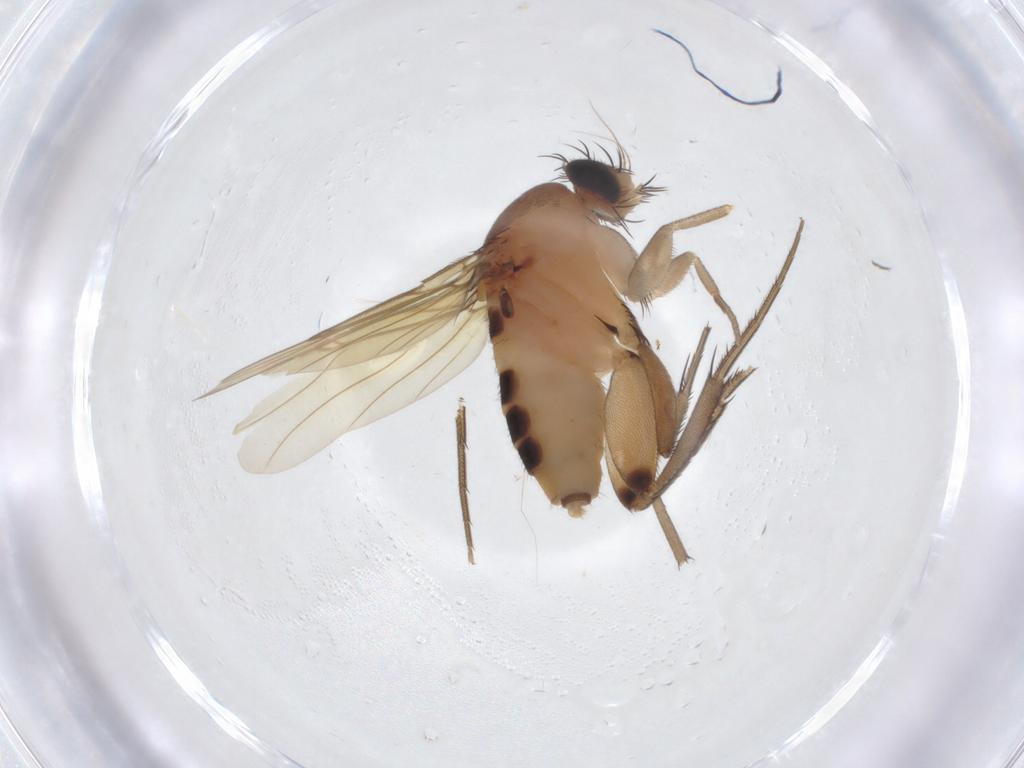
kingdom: Animalia
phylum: Arthropoda
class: Insecta
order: Diptera
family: Phoridae
